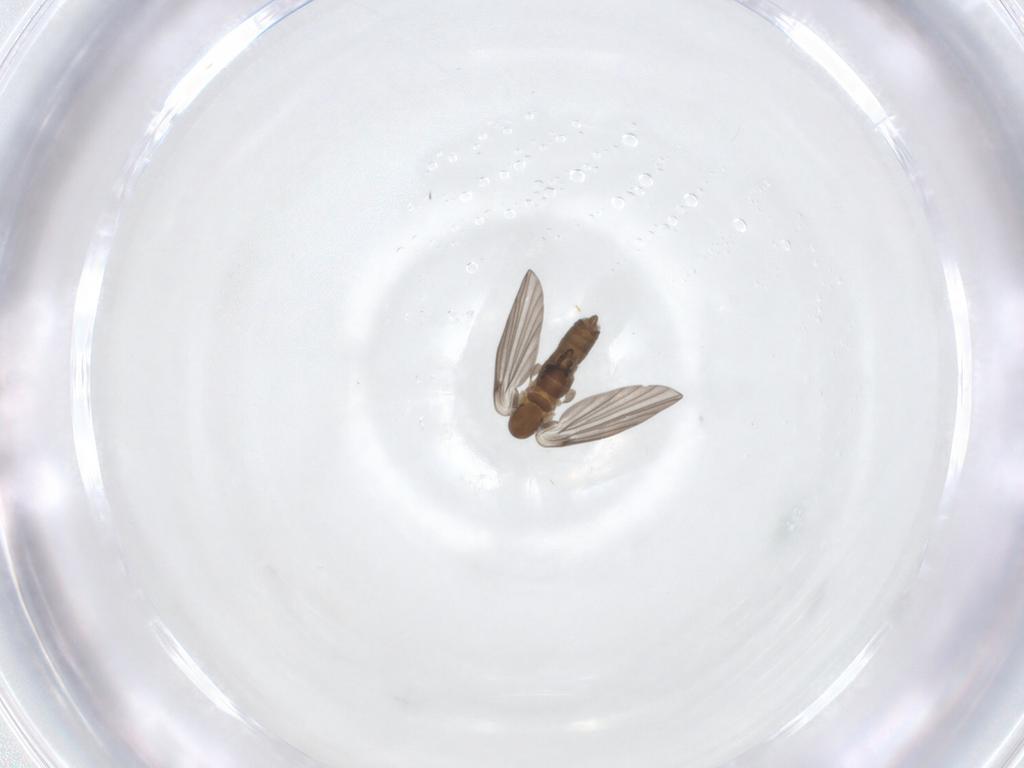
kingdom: Animalia
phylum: Arthropoda
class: Insecta
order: Diptera
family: Psychodidae
